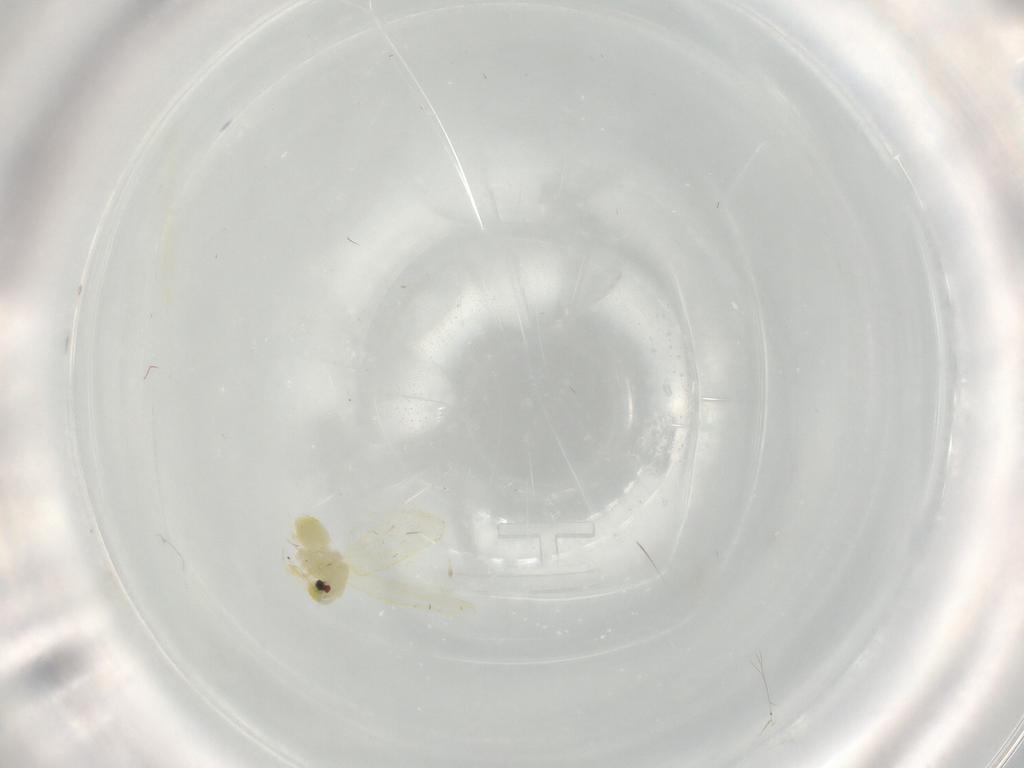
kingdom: Animalia
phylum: Arthropoda
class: Insecta
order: Hemiptera
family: Aleyrodidae
